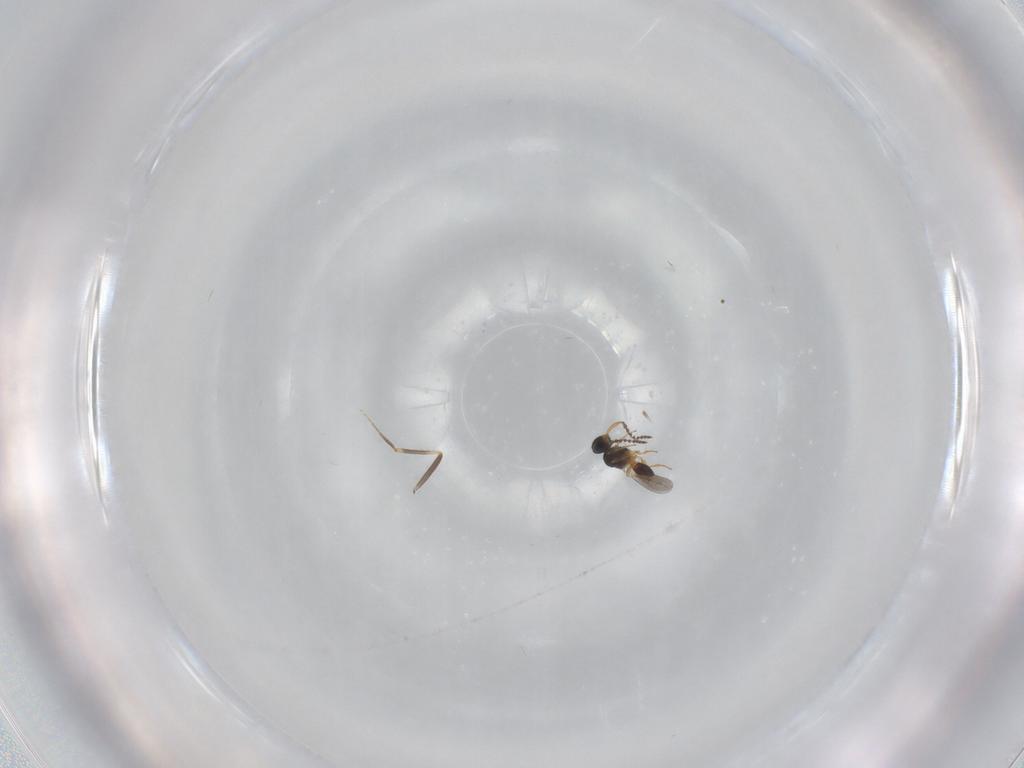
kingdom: Animalia
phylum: Arthropoda
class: Insecta
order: Hymenoptera
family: Platygastridae
